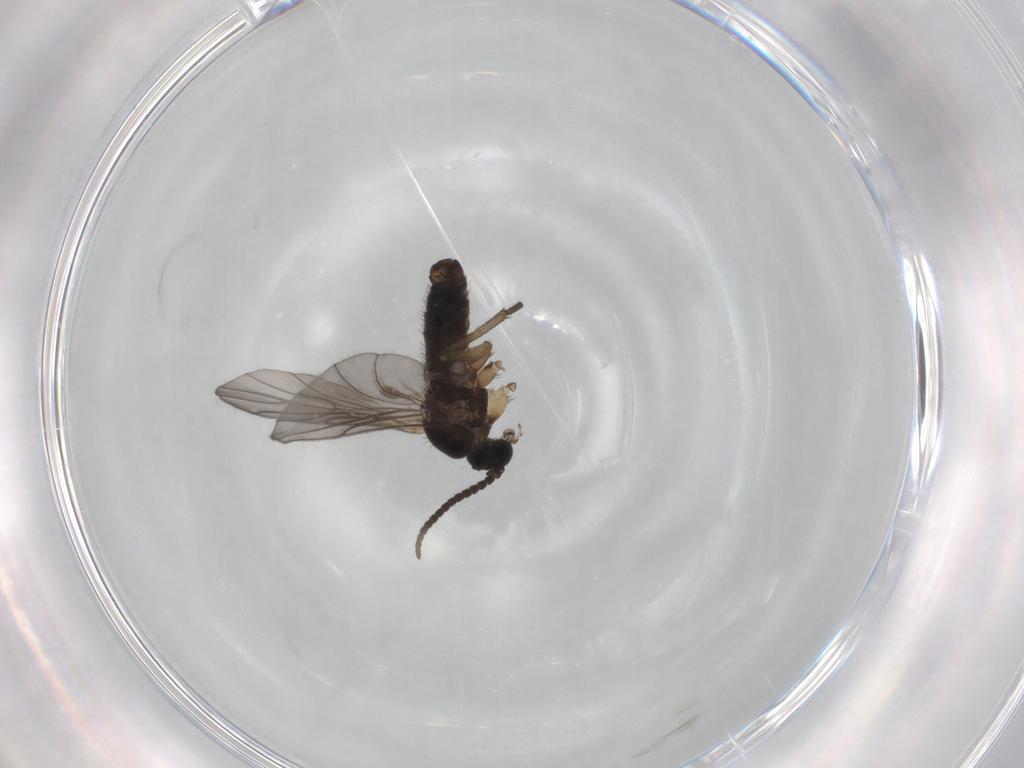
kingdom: Animalia
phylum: Arthropoda
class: Insecta
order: Diptera
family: Sciaridae
